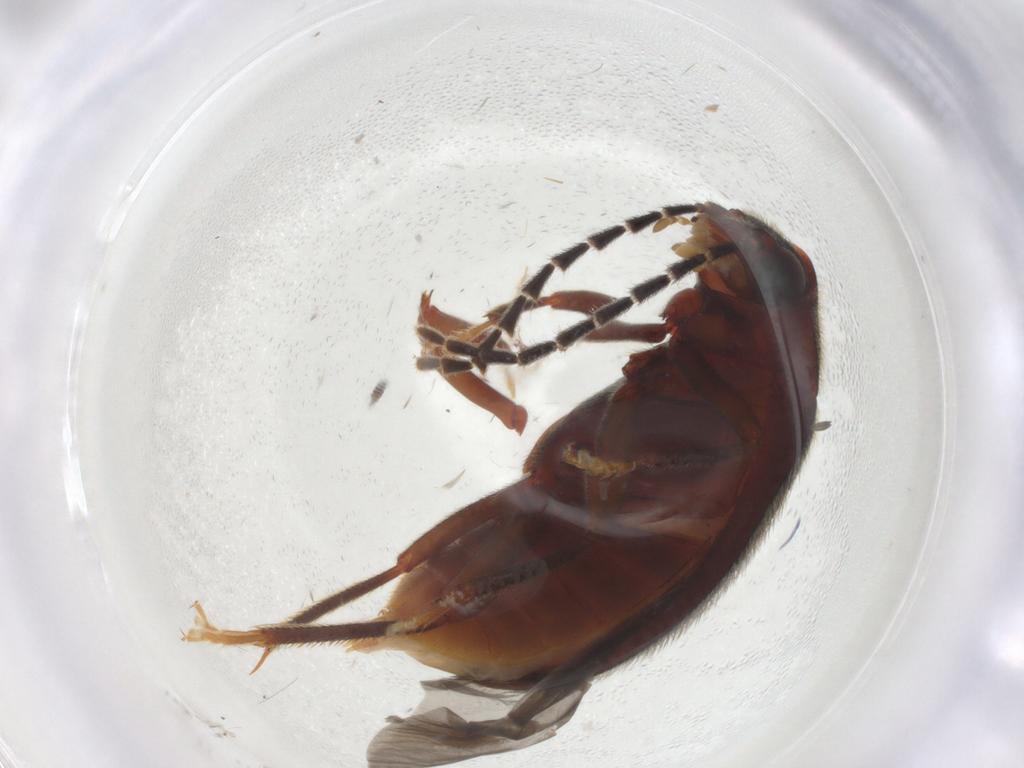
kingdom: Animalia
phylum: Arthropoda
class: Insecta
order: Coleoptera
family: Ptilodactylidae
